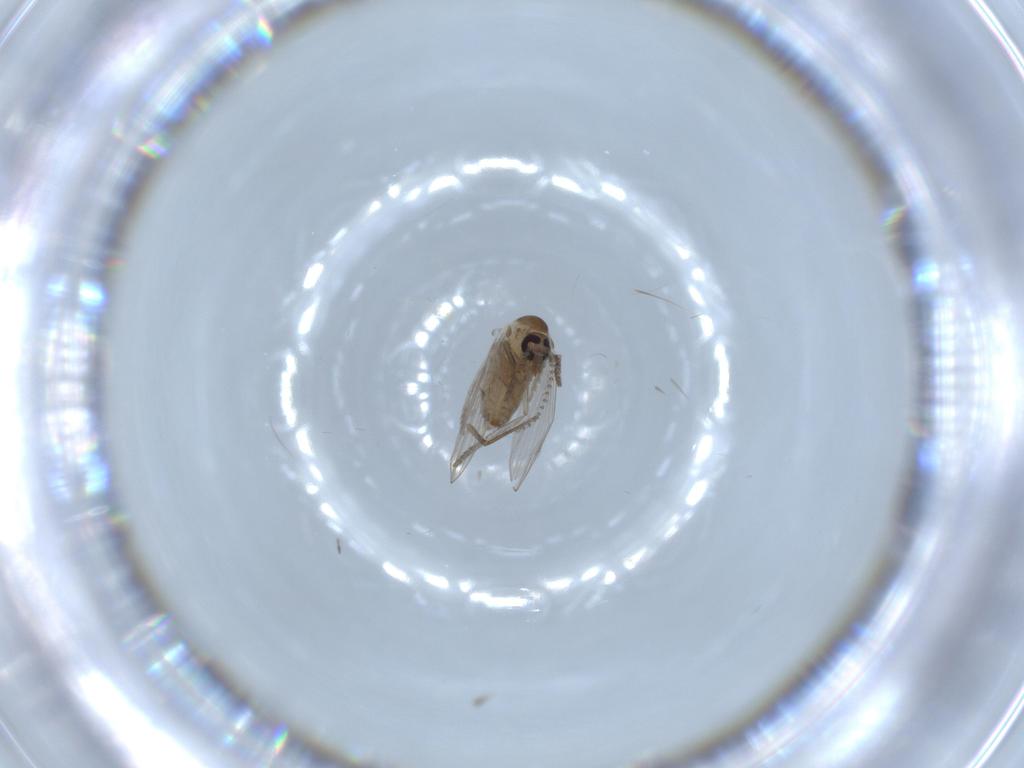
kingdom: Animalia
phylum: Arthropoda
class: Insecta
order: Diptera
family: Psychodidae
